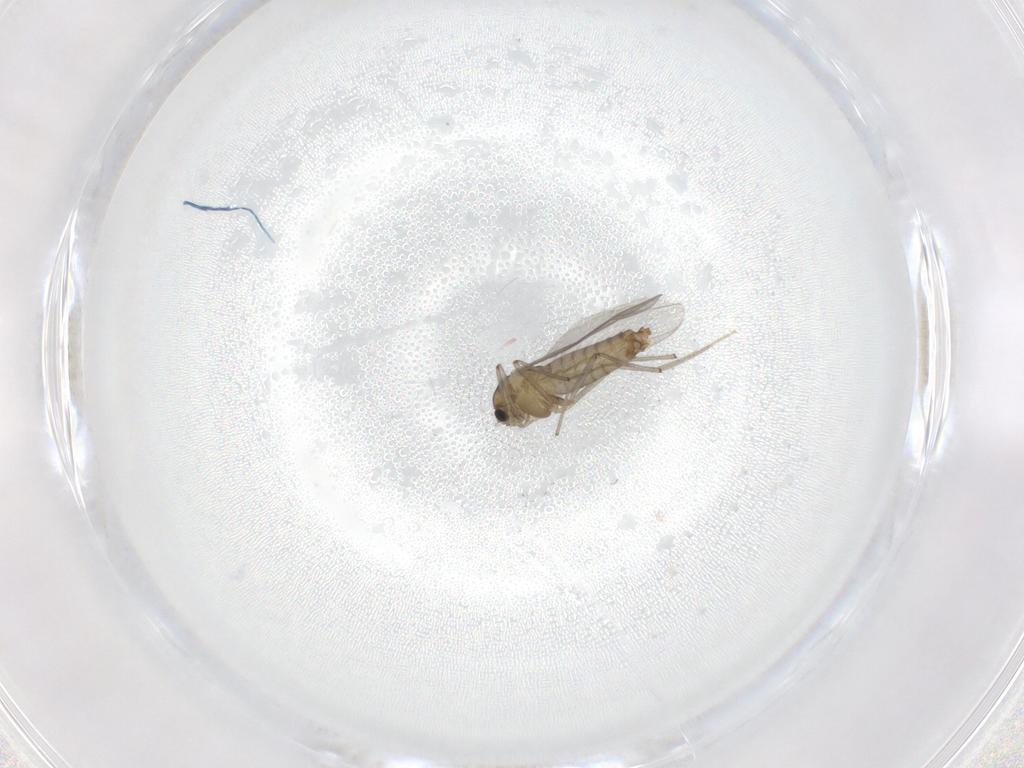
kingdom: Animalia
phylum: Arthropoda
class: Insecta
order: Diptera
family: Chironomidae
